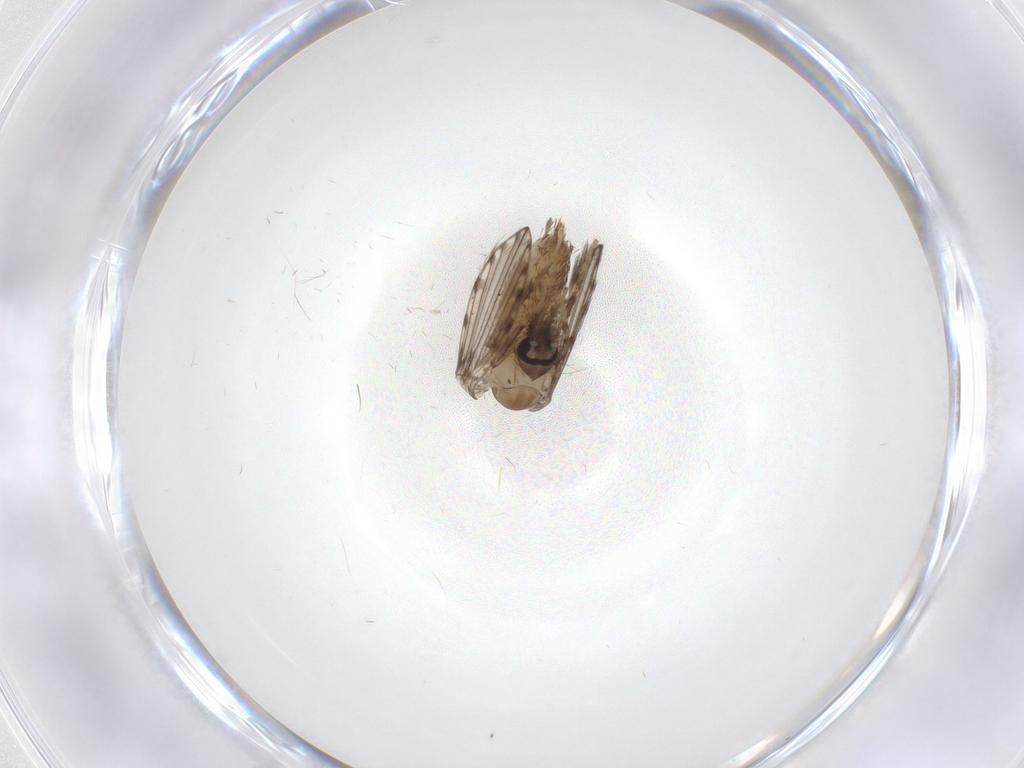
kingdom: Animalia
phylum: Arthropoda
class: Insecta
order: Diptera
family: Psychodidae
